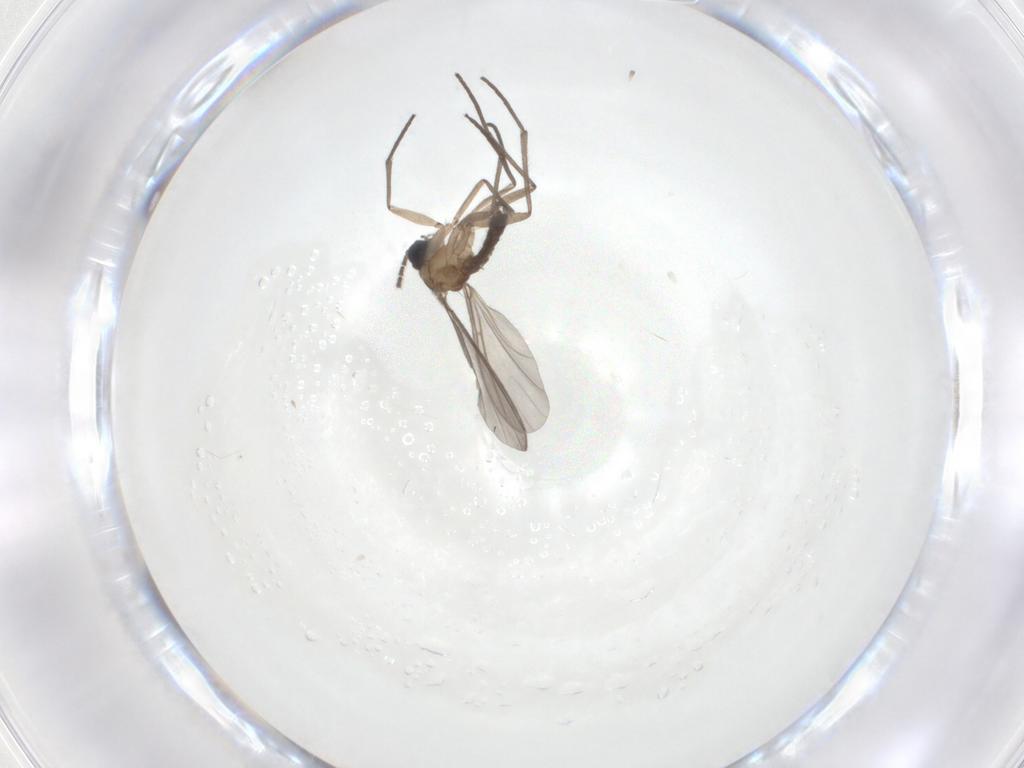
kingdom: Animalia
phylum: Arthropoda
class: Insecta
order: Diptera
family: Sciaridae
